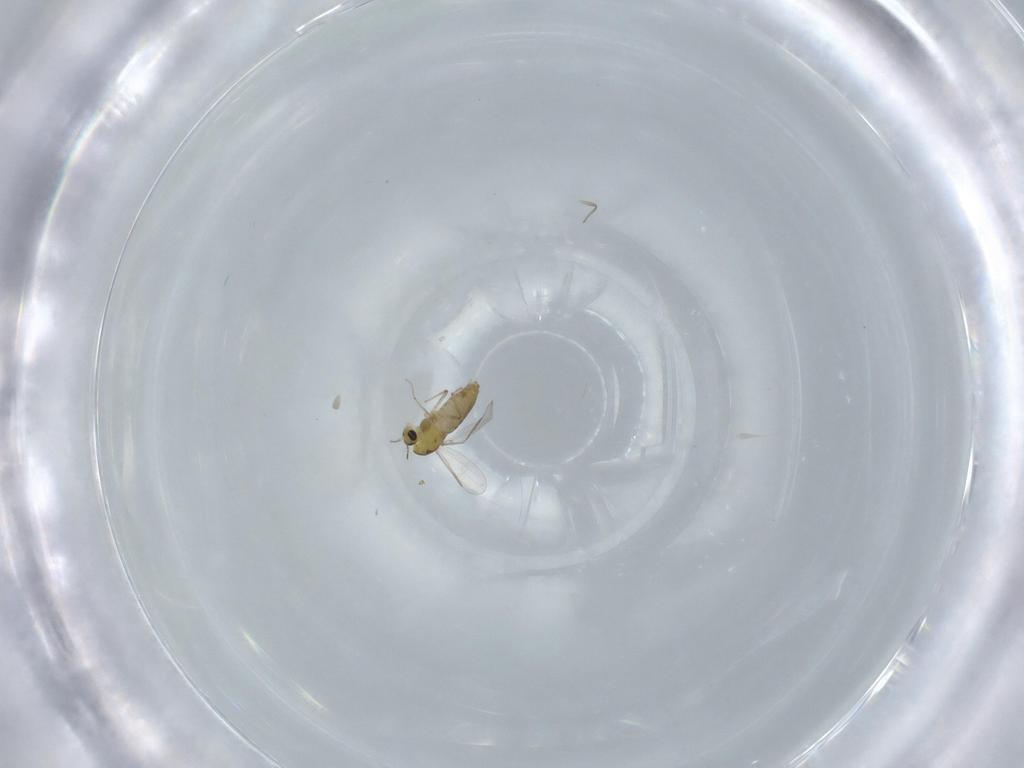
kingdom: Animalia
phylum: Arthropoda
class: Insecta
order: Diptera
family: Chironomidae
